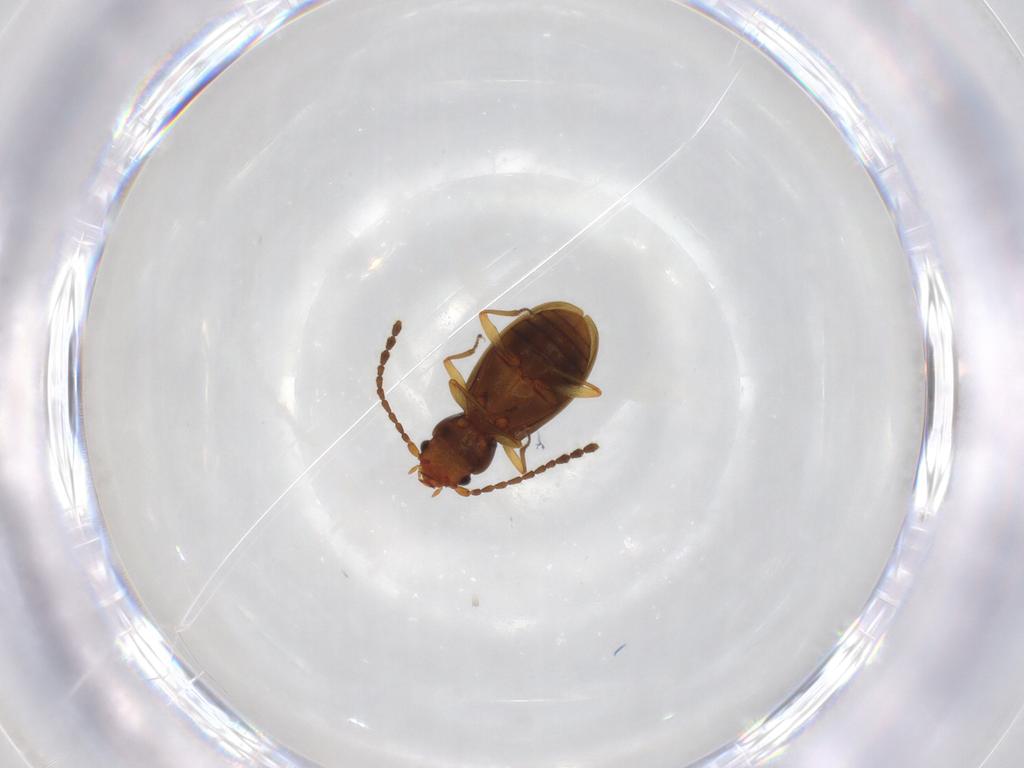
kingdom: Animalia
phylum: Arthropoda
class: Insecta
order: Coleoptera
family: Laemophloeidae
